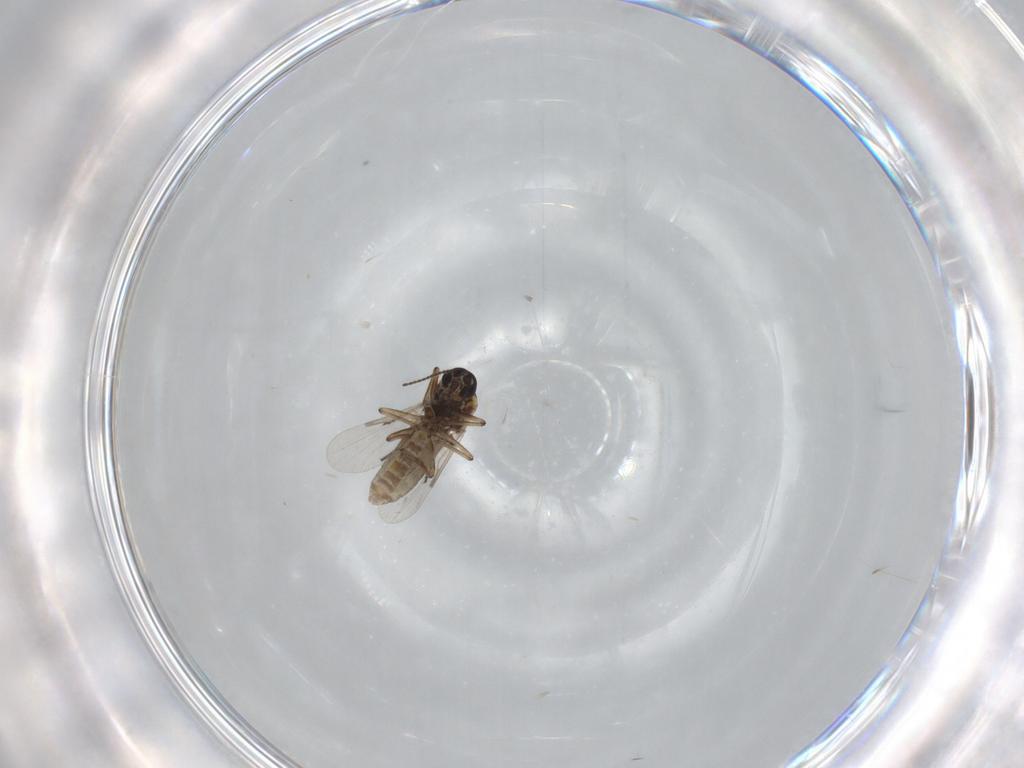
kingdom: Animalia
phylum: Arthropoda
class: Insecta
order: Diptera
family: Ceratopogonidae
